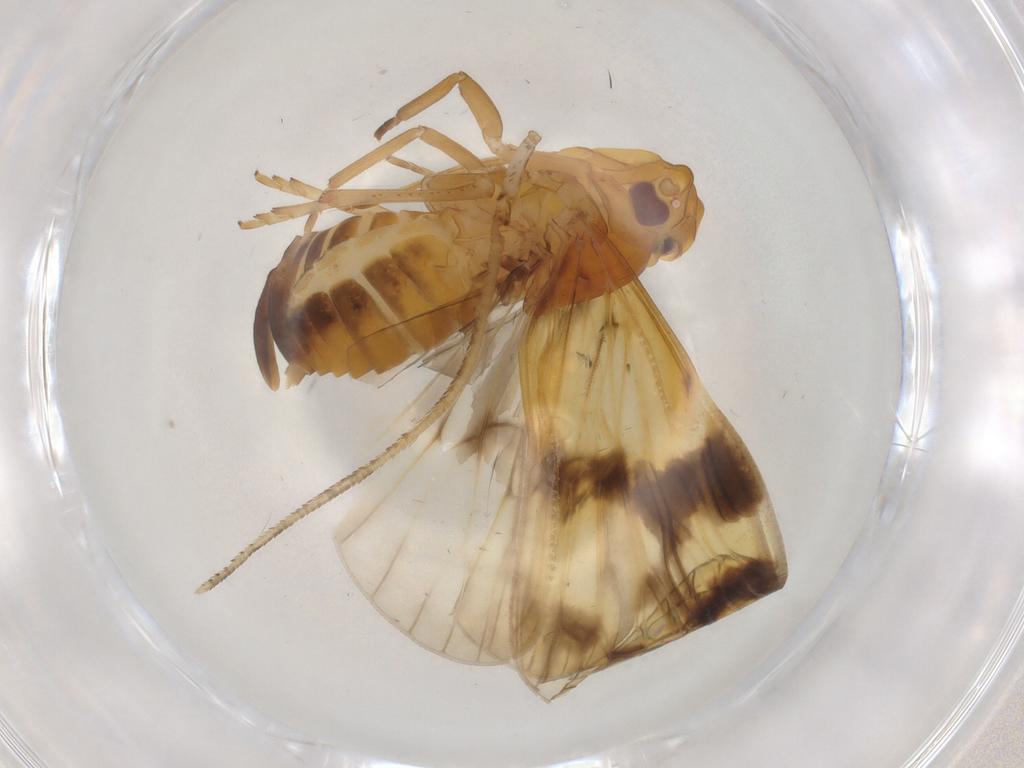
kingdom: Animalia
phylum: Arthropoda
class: Insecta
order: Hemiptera
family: Cixiidae
